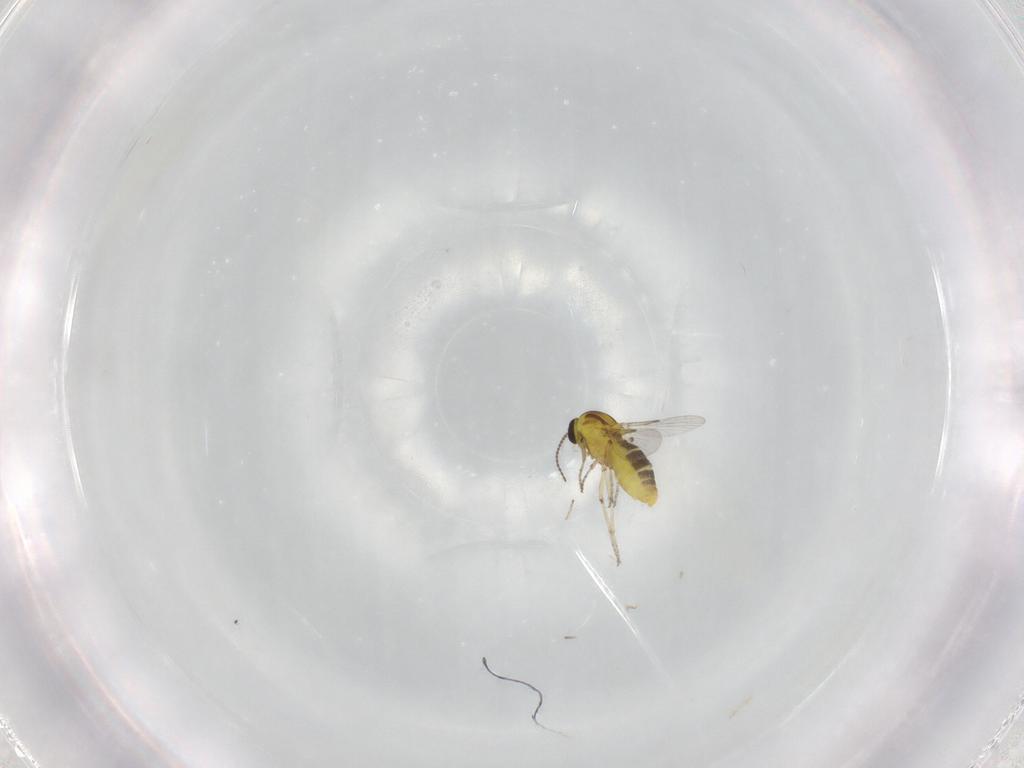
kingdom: Animalia
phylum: Arthropoda
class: Insecta
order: Diptera
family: Ceratopogonidae
